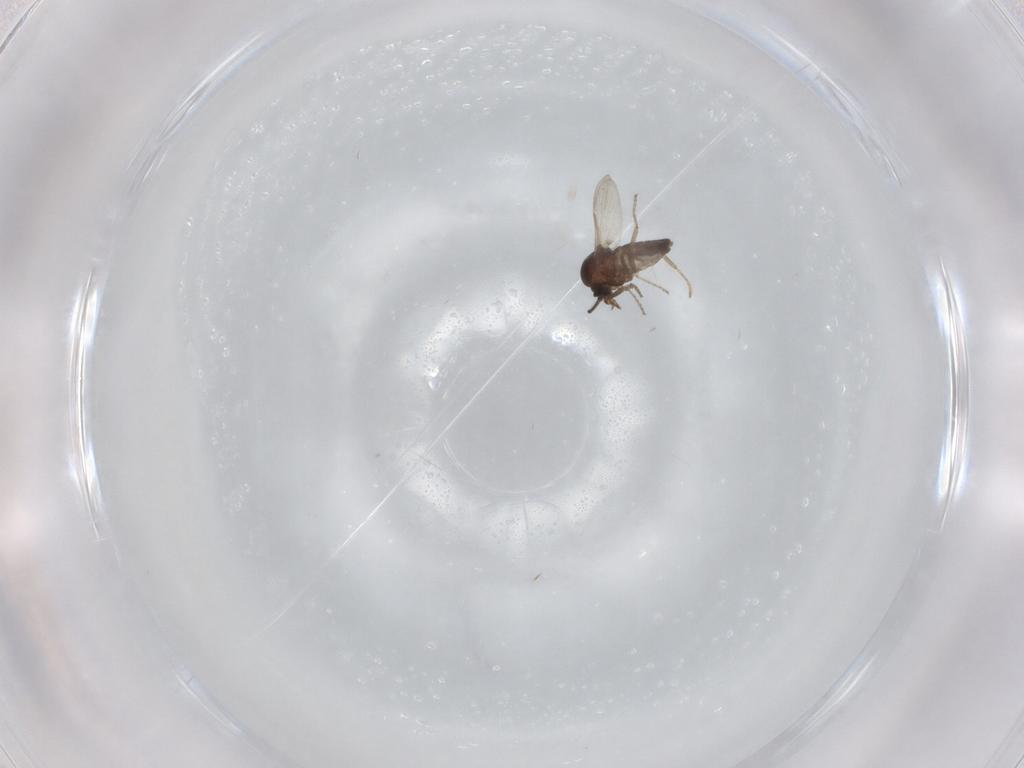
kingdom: Animalia
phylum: Arthropoda
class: Insecta
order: Diptera
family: Ceratopogonidae
